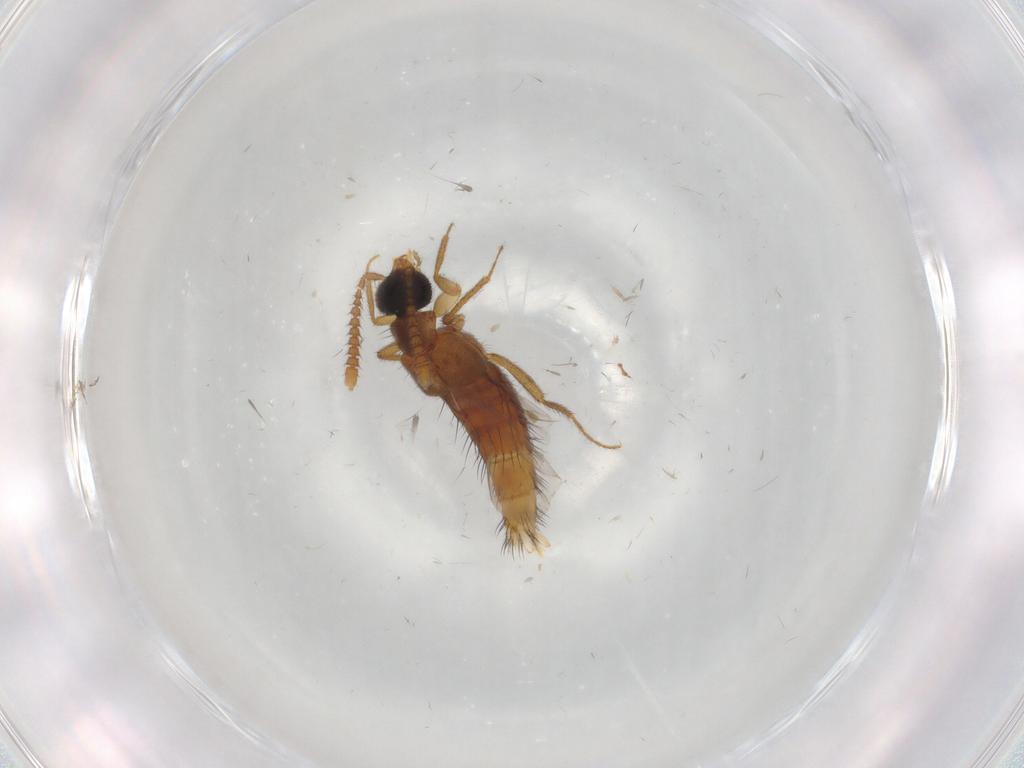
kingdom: Animalia
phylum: Arthropoda
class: Insecta
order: Coleoptera
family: Staphylinidae
